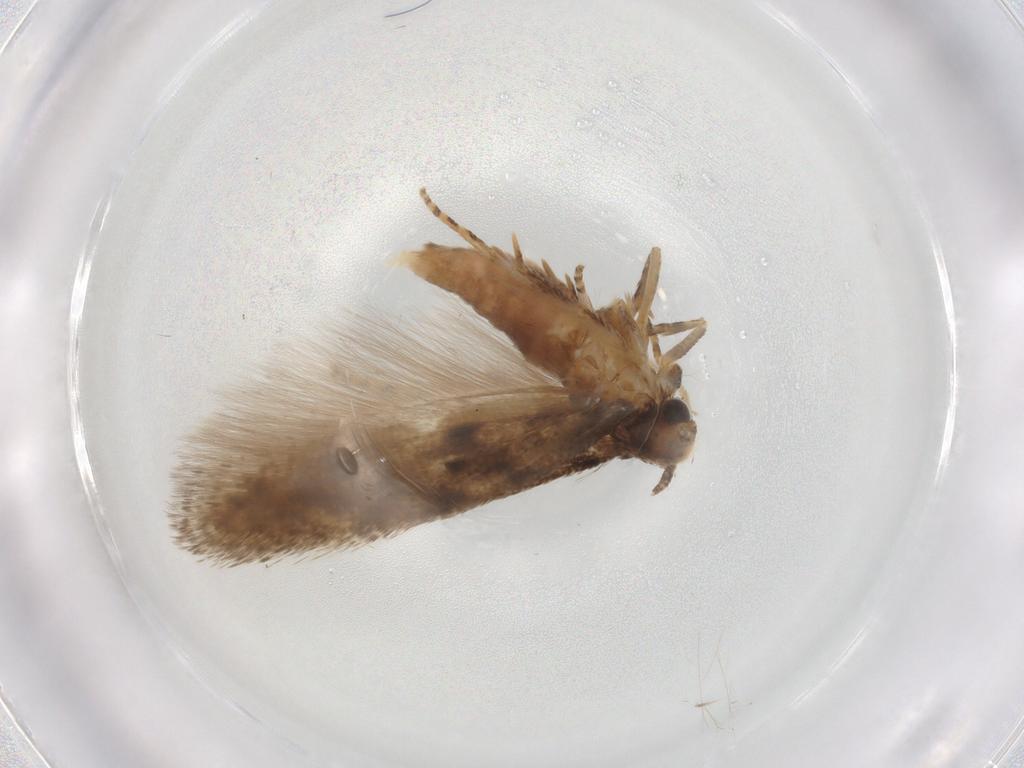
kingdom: Animalia
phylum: Arthropoda
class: Insecta
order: Lepidoptera
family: Gelechiidae
